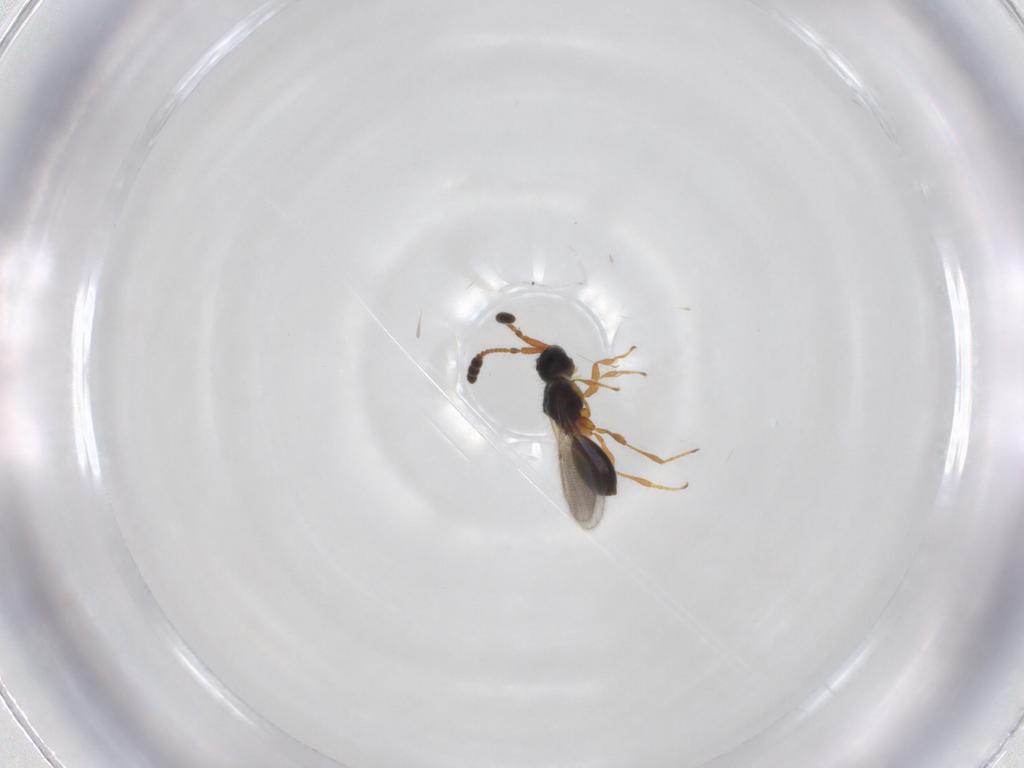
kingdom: Animalia
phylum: Arthropoda
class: Insecta
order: Hymenoptera
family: Diapriidae
